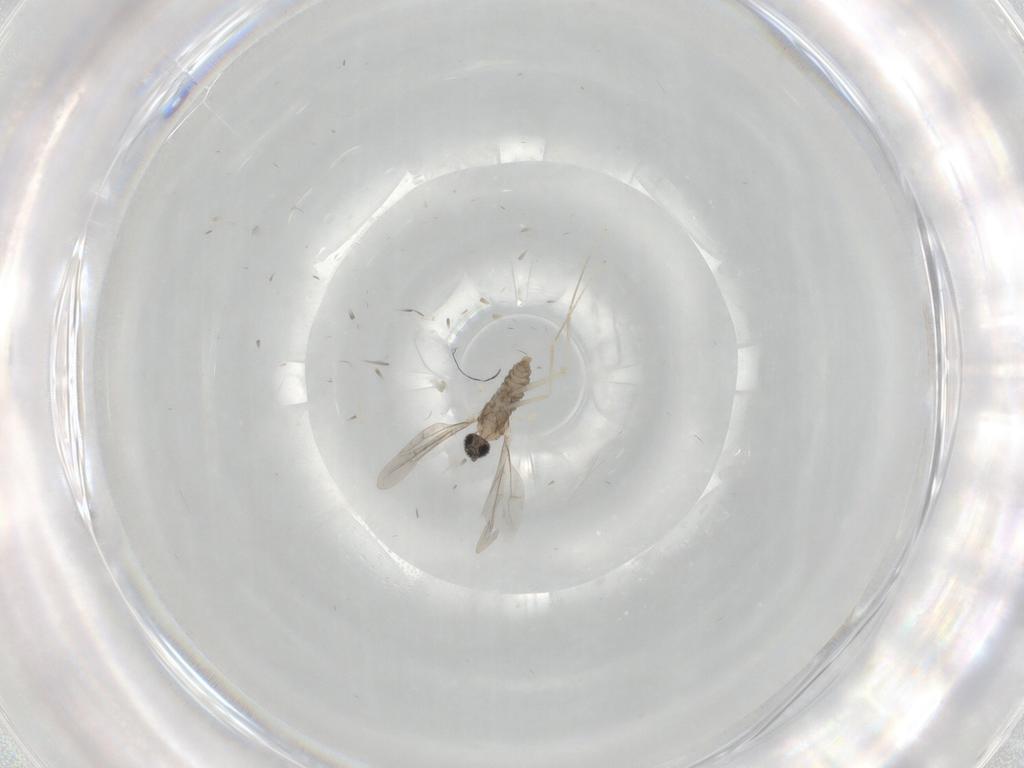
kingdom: Animalia
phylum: Arthropoda
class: Insecta
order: Diptera
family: Cecidomyiidae
